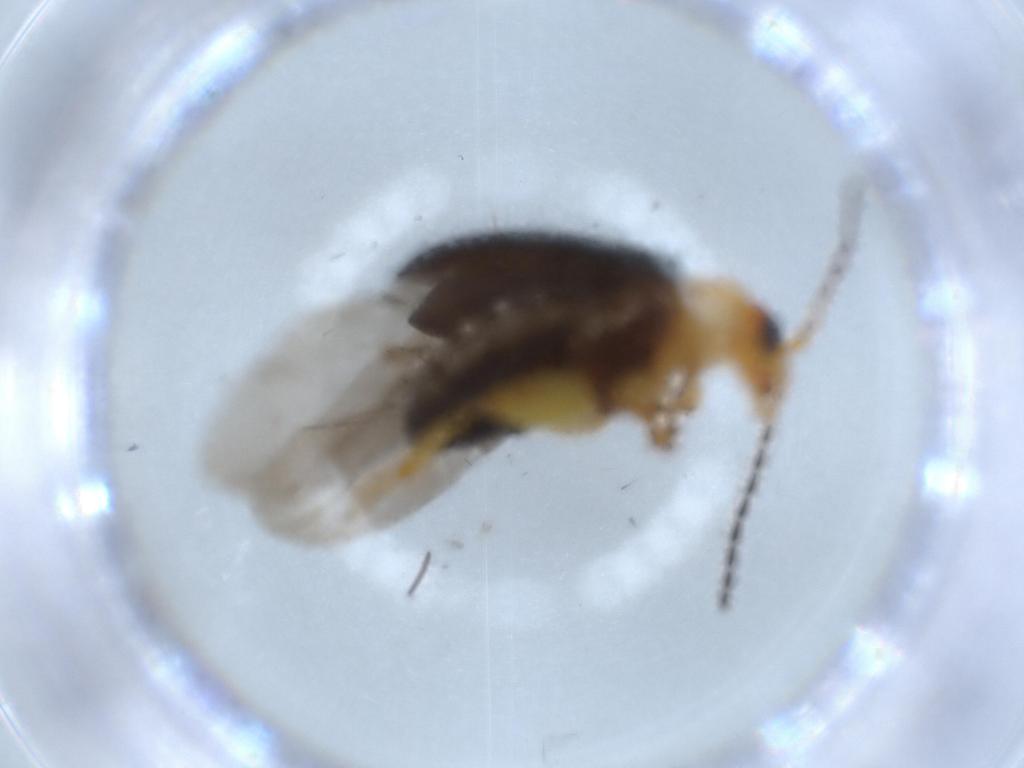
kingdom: Animalia
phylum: Arthropoda
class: Insecta
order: Coleoptera
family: Chrysomelidae
